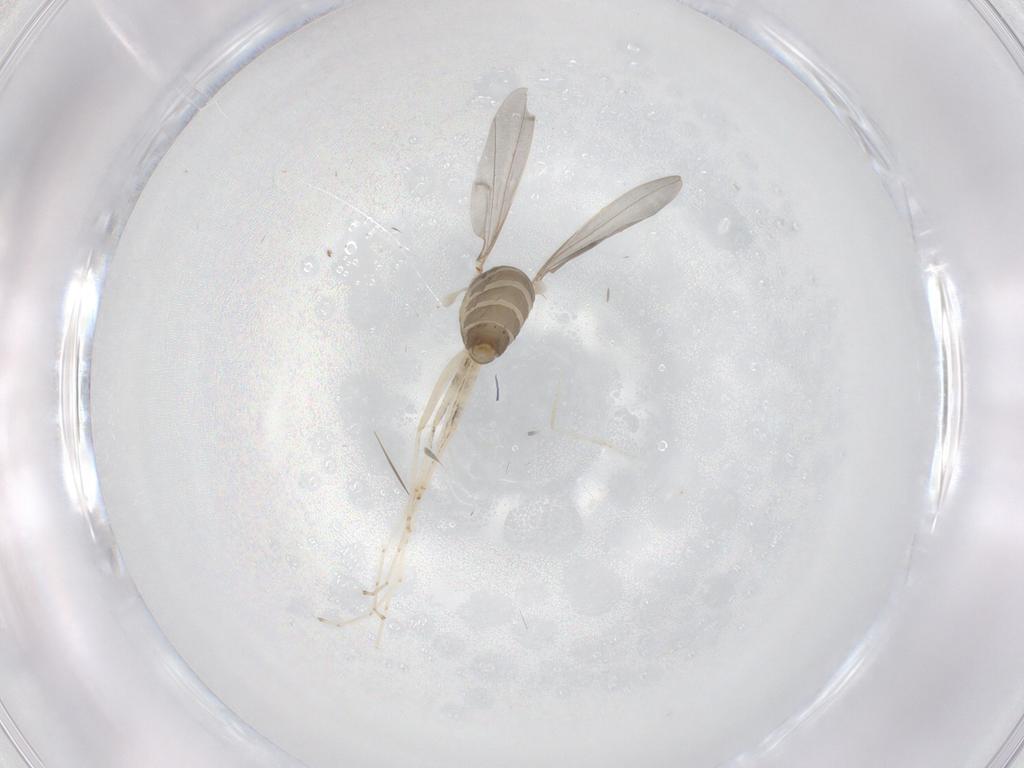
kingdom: Animalia
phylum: Arthropoda
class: Insecta
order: Diptera
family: Cecidomyiidae
